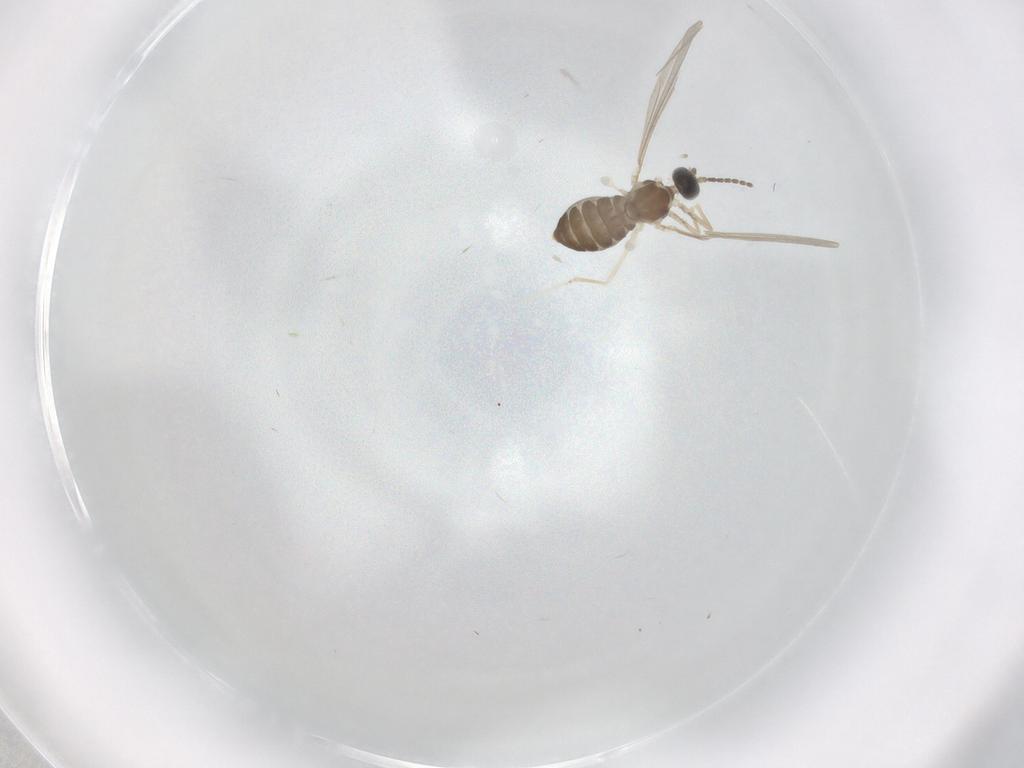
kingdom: Animalia
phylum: Arthropoda
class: Insecta
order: Diptera
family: Cecidomyiidae
